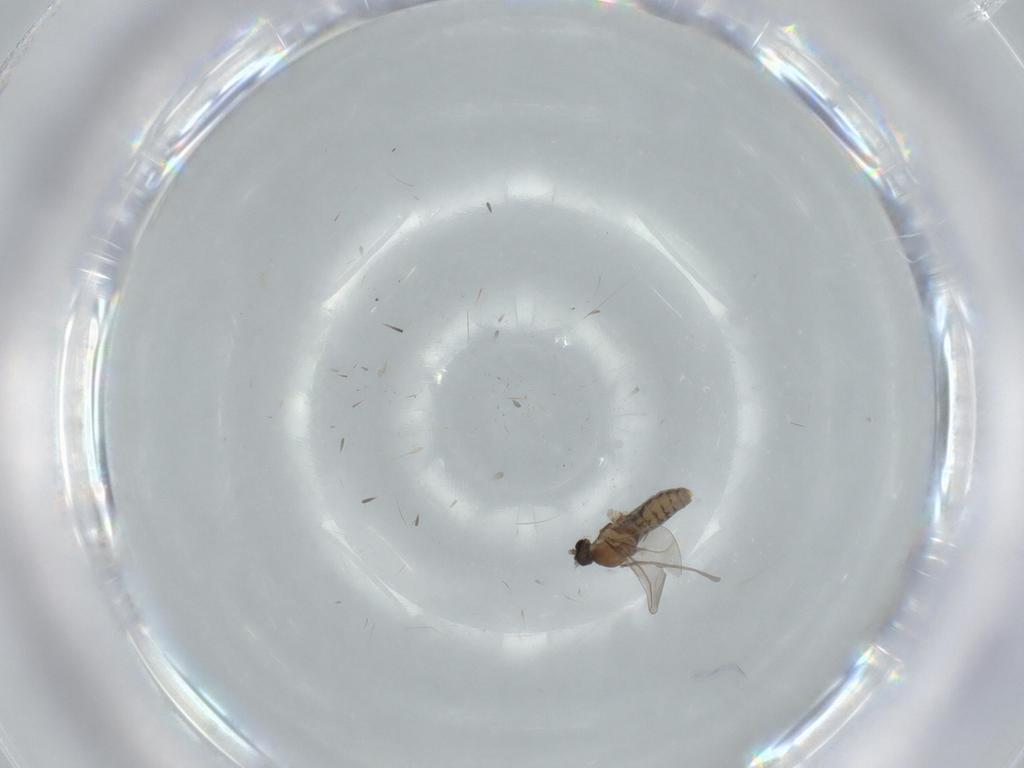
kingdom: Animalia
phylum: Arthropoda
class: Insecta
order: Diptera
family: Cecidomyiidae
